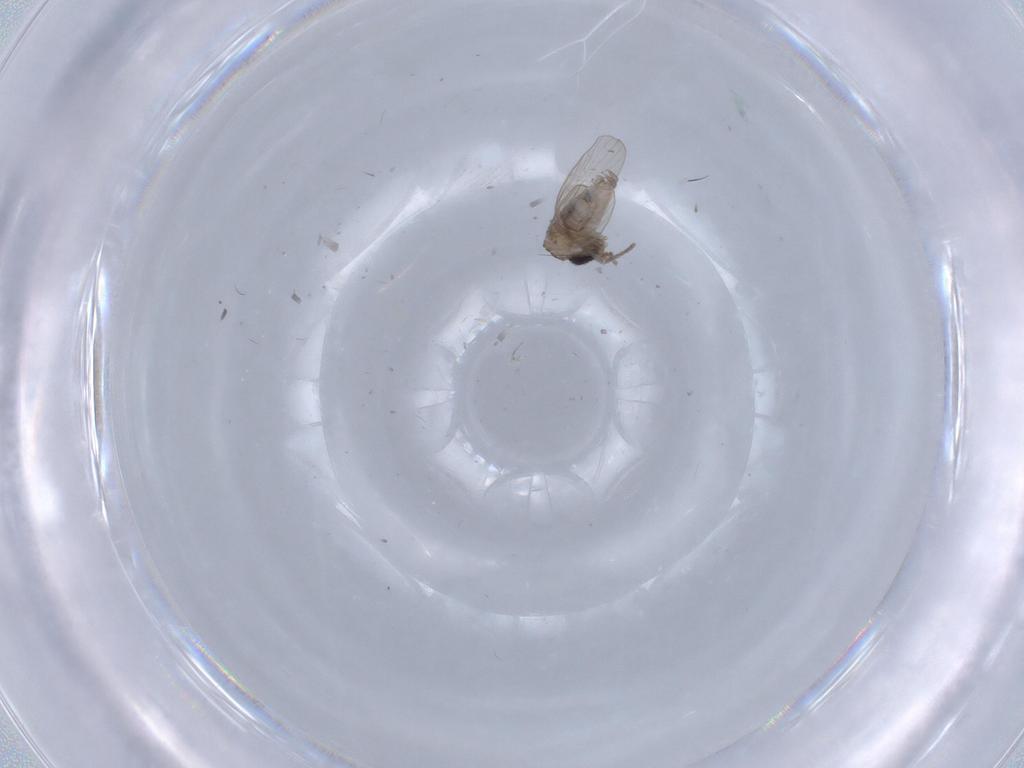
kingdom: Animalia
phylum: Arthropoda
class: Insecta
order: Diptera
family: Psychodidae
